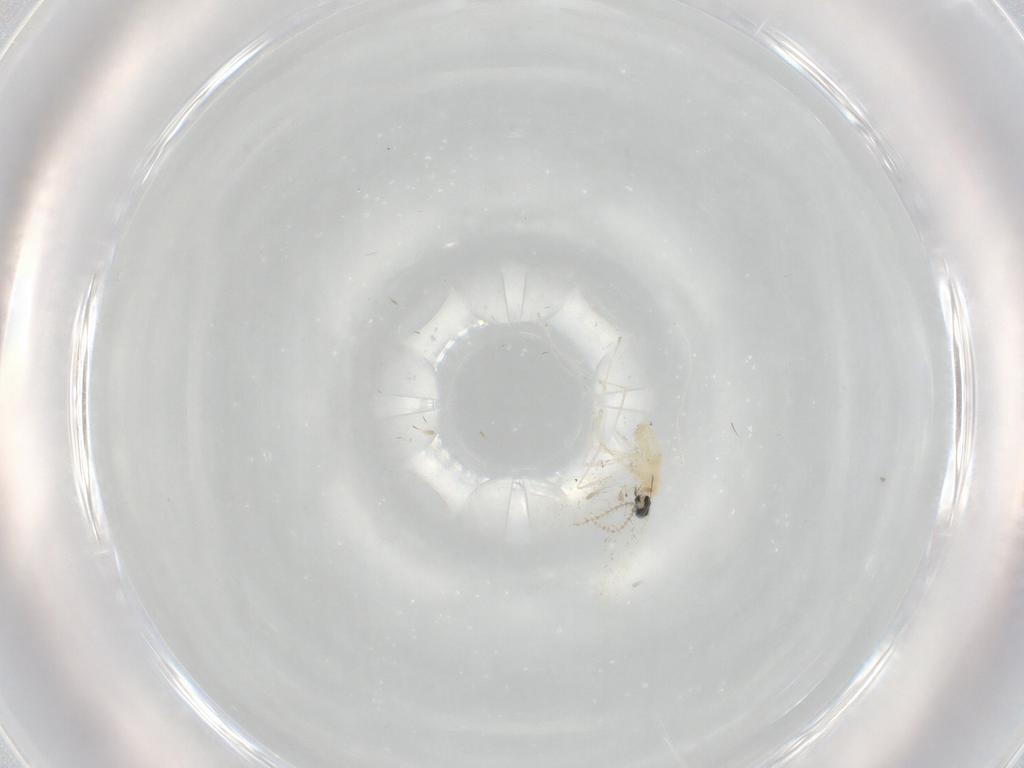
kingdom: Animalia
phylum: Arthropoda
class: Insecta
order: Diptera
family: Cecidomyiidae
